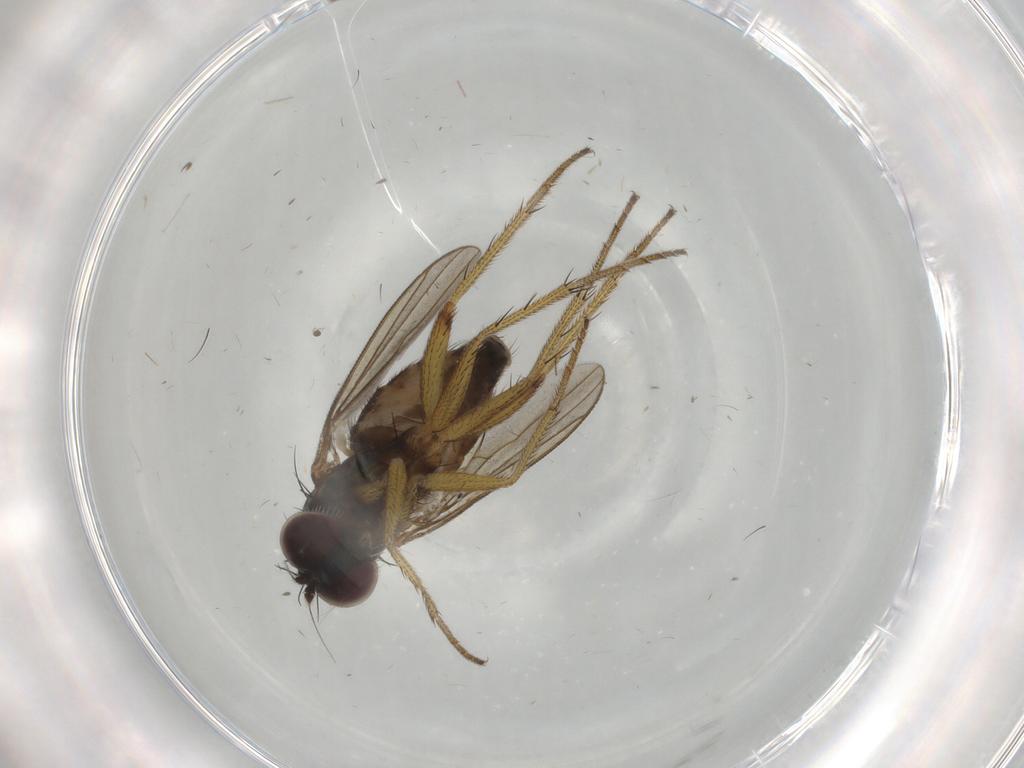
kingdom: Animalia
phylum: Arthropoda
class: Insecta
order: Diptera
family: Dolichopodidae
